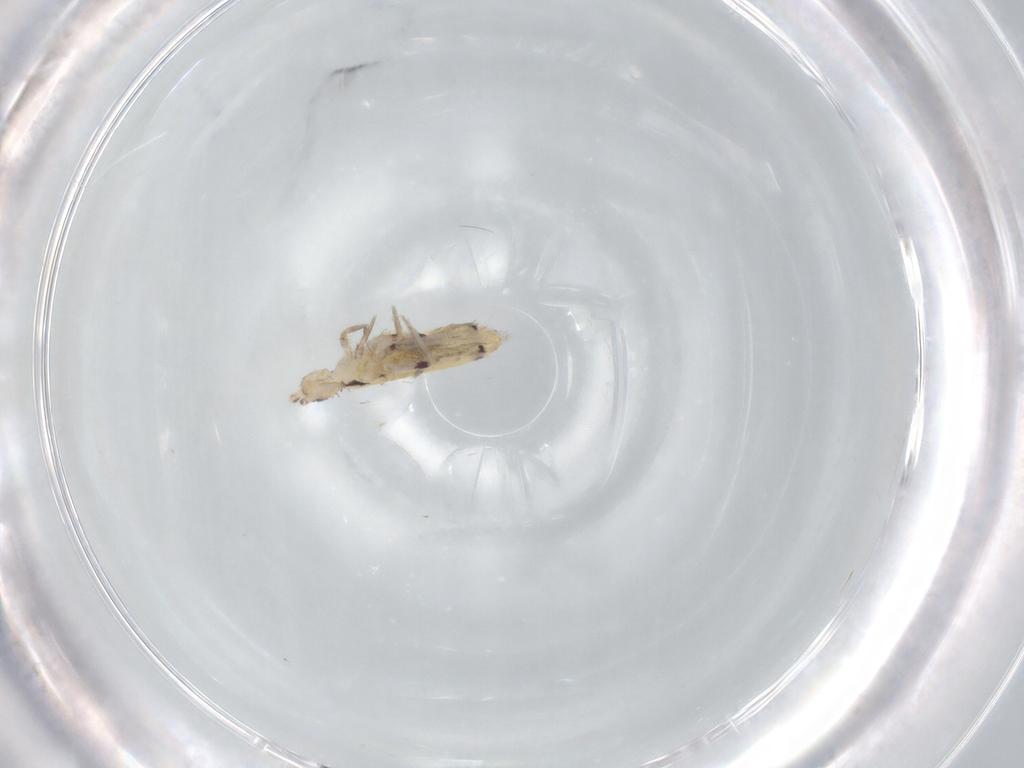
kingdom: Animalia
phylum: Arthropoda
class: Collembola
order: Entomobryomorpha
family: Entomobryidae
